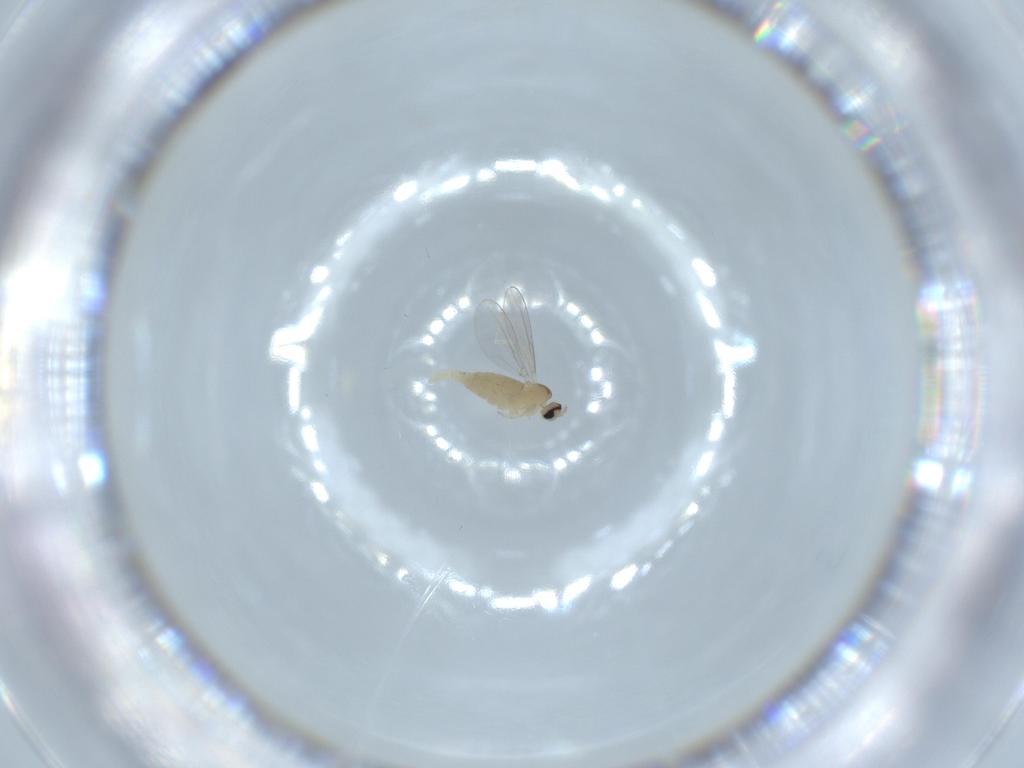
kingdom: Animalia
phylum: Arthropoda
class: Insecta
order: Diptera
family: Cecidomyiidae
